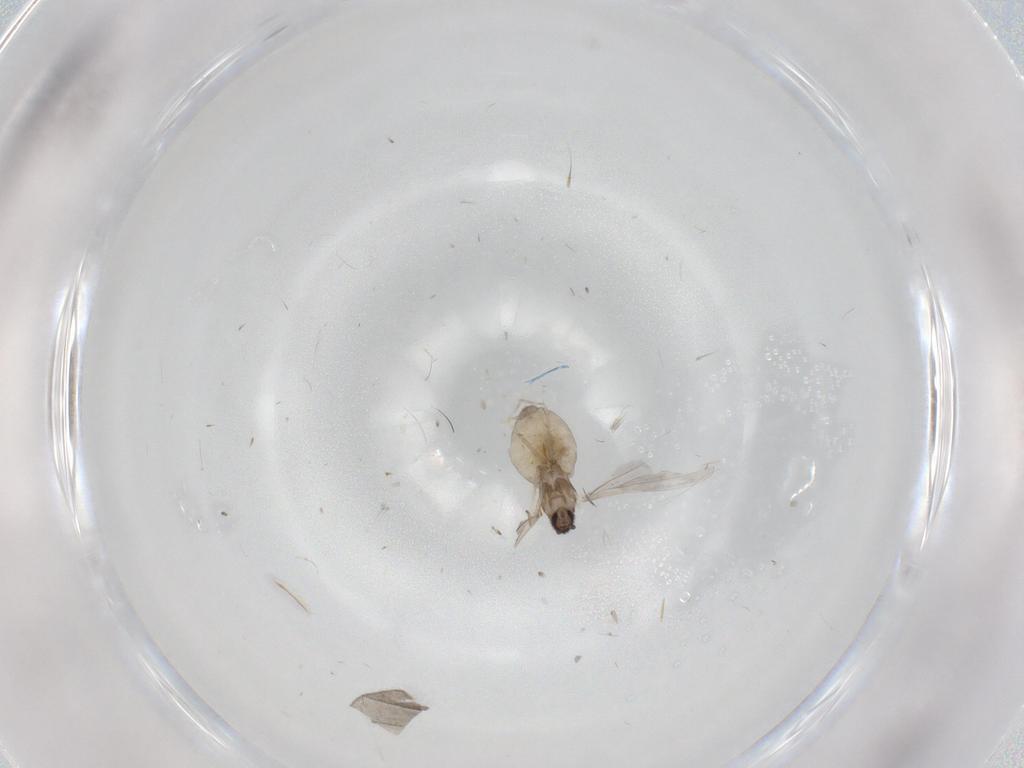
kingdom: Animalia
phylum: Arthropoda
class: Insecta
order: Diptera
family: Cecidomyiidae
